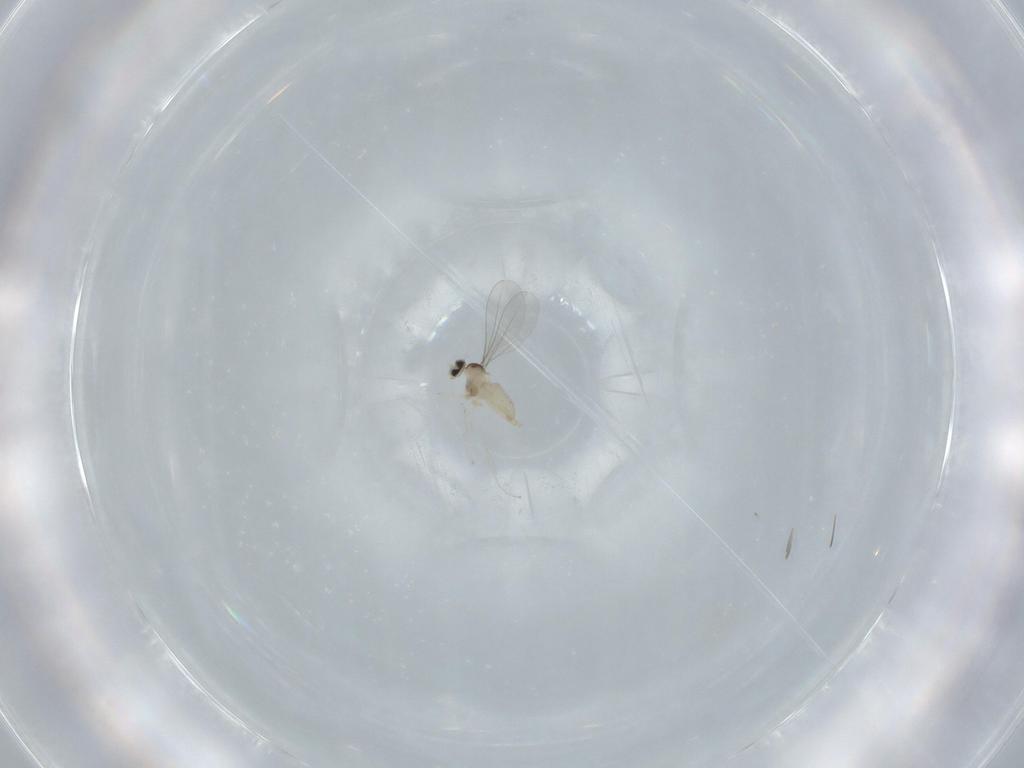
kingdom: Animalia
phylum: Arthropoda
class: Insecta
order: Diptera
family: Cecidomyiidae
